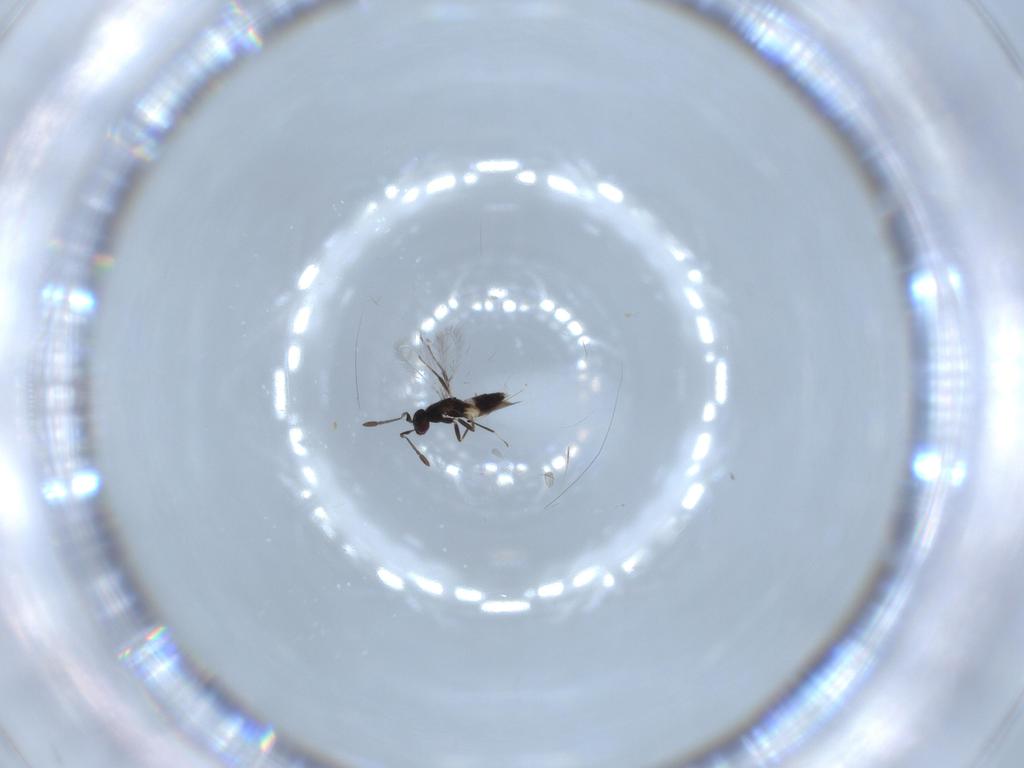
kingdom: Animalia
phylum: Arthropoda
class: Insecta
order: Hymenoptera
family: Mymaridae
